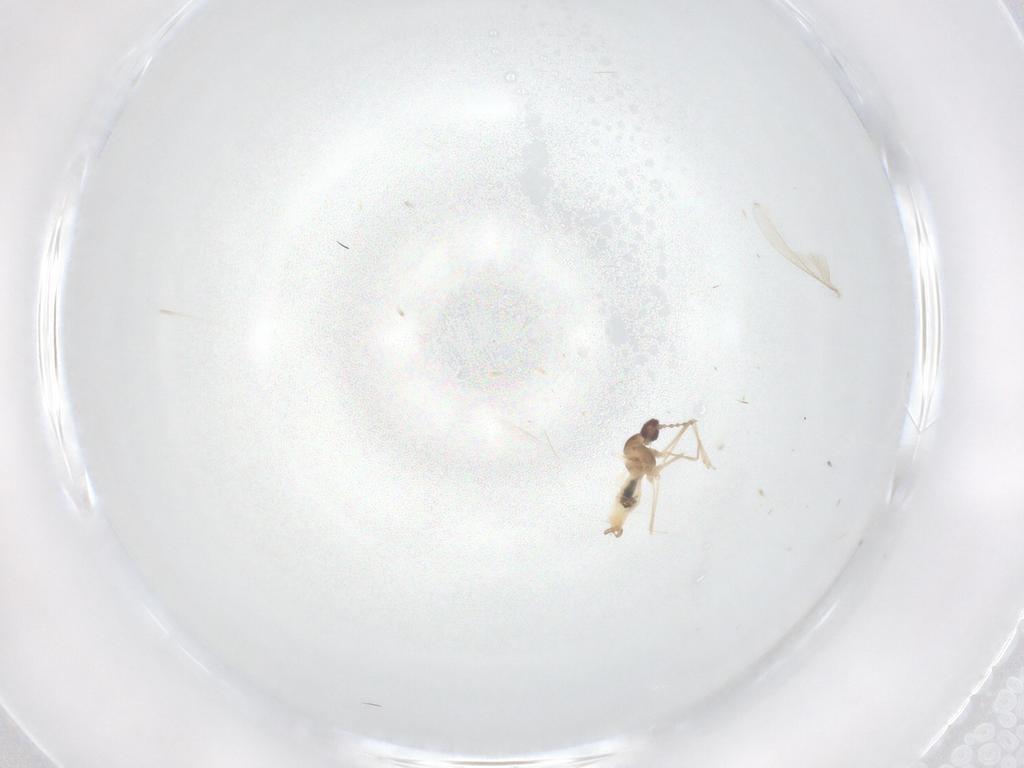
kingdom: Animalia
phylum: Arthropoda
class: Insecta
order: Diptera
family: Cecidomyiidae
